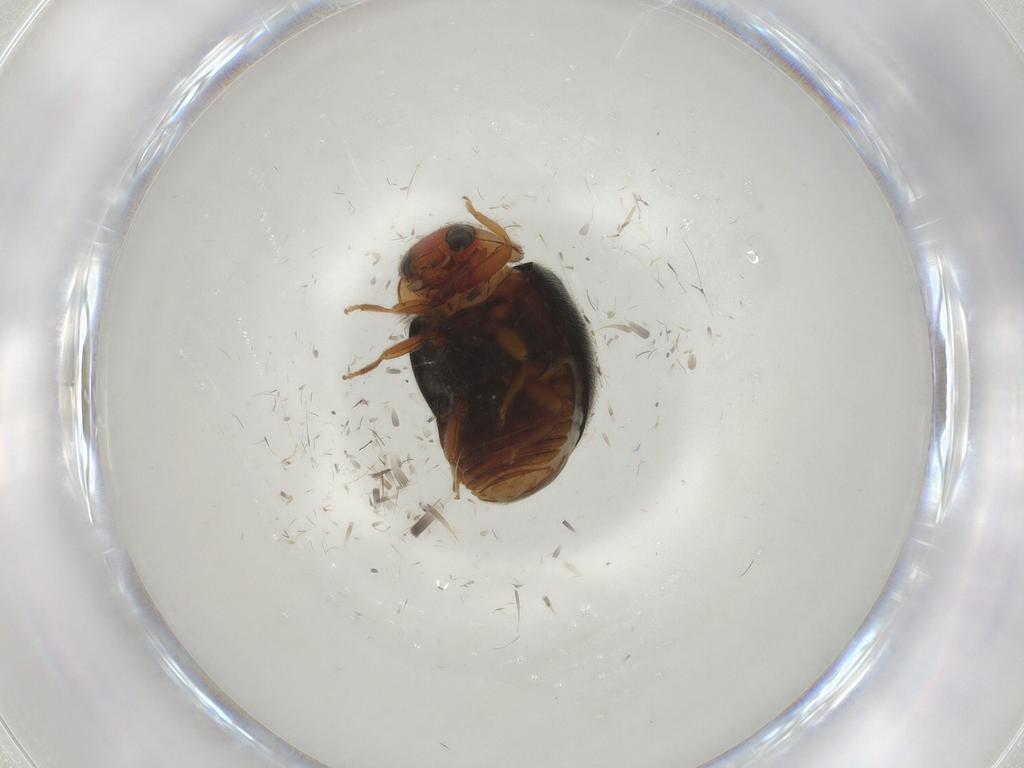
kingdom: Animalia
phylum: Arthropoda
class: Insecta
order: Coleoptera
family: Coccinellidae
